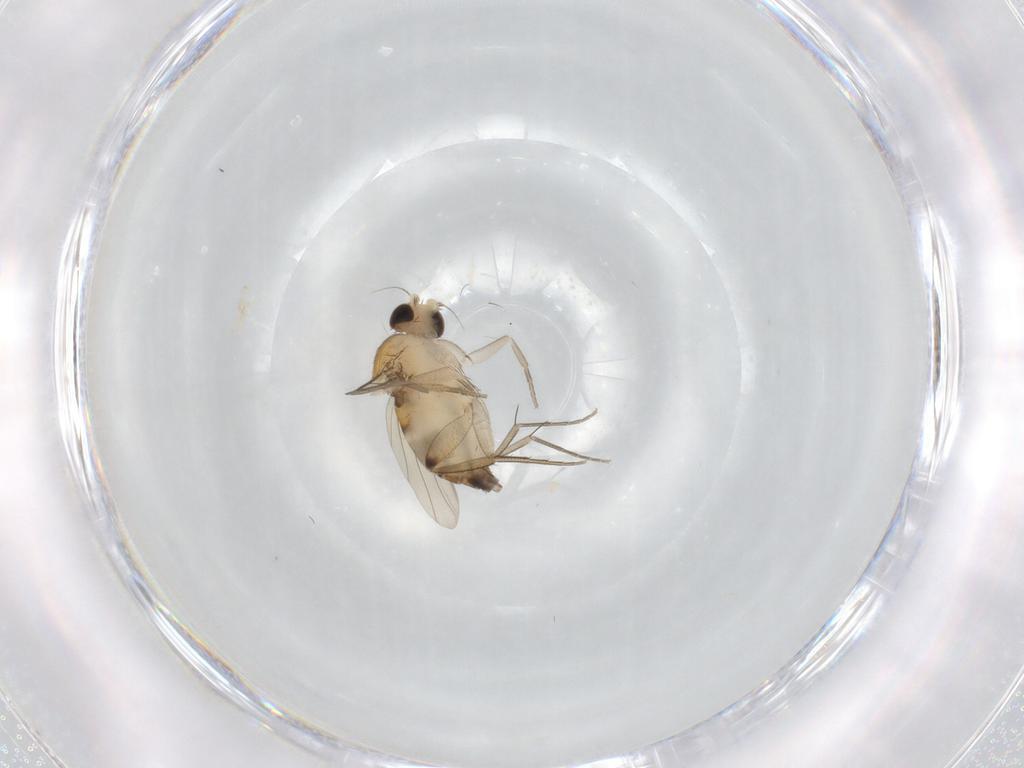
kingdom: Animalia
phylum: Arthropoda
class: Insecta
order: Diptera
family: Phoridae
